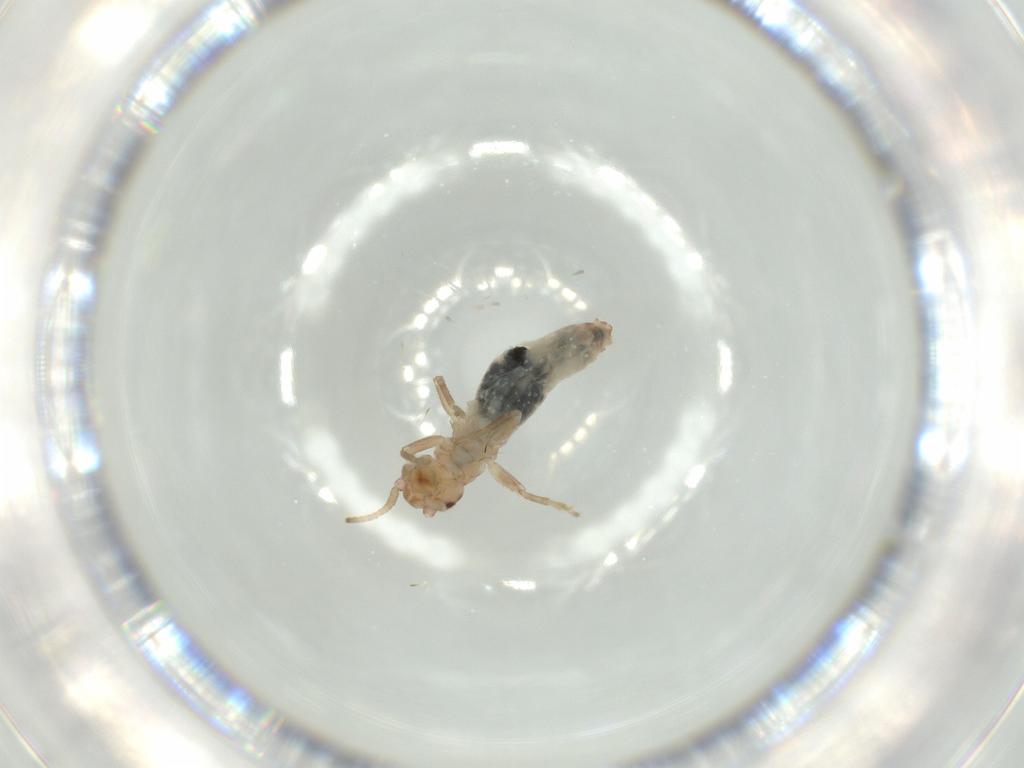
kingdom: Animalia
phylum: Arthropoda
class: Insecta
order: Orthoptera
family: Mogoplistidae
